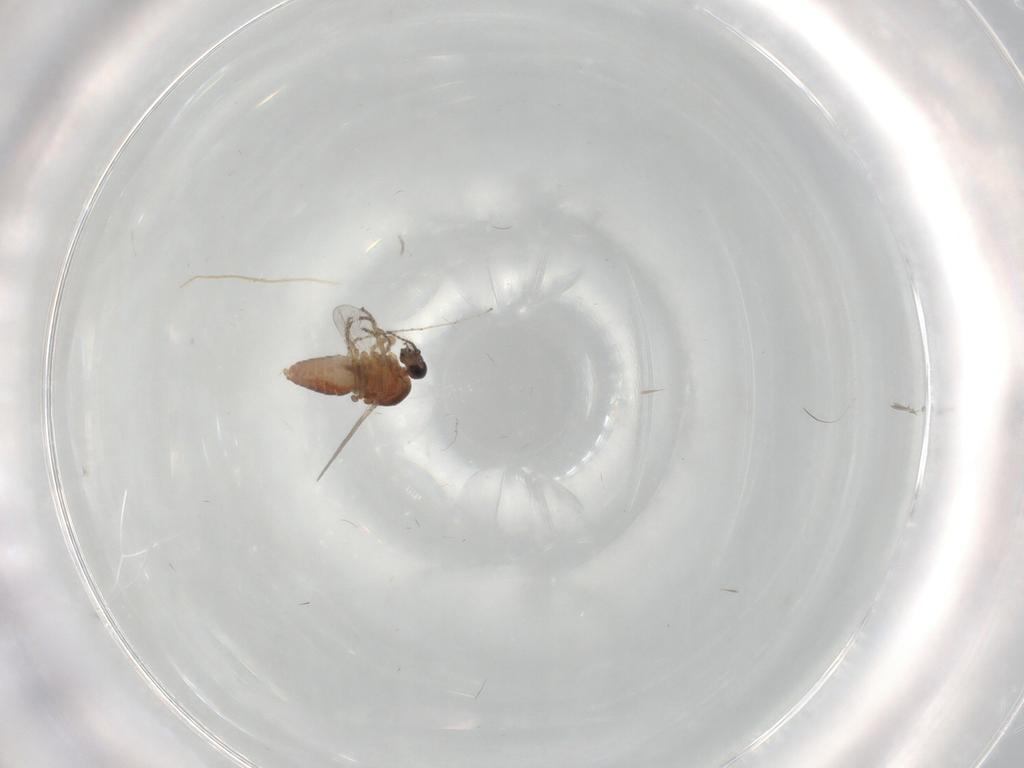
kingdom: Animalia
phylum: Arthropoda
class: Insecta
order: Diptera
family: Ceratopogonidae
